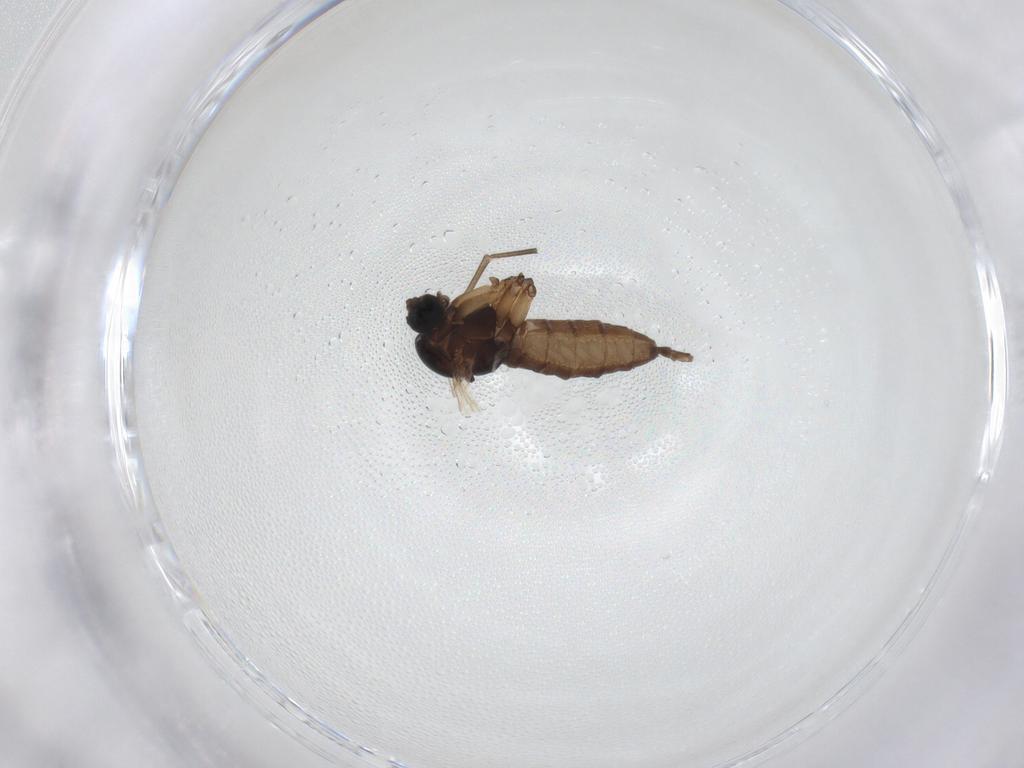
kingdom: Animalia
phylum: Arthropoda
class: Insecta
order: Diptera
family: Sciaridae
